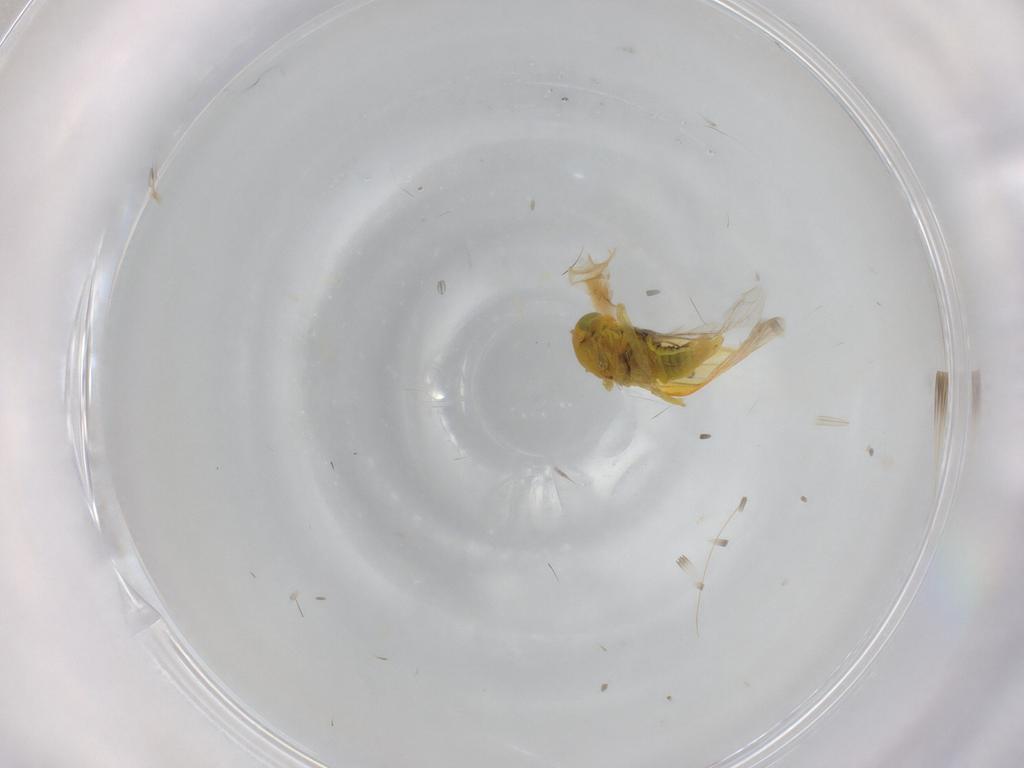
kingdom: Animalia
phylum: Arthropoda
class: Insecta
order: Hemiptera
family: Cicadellidae
